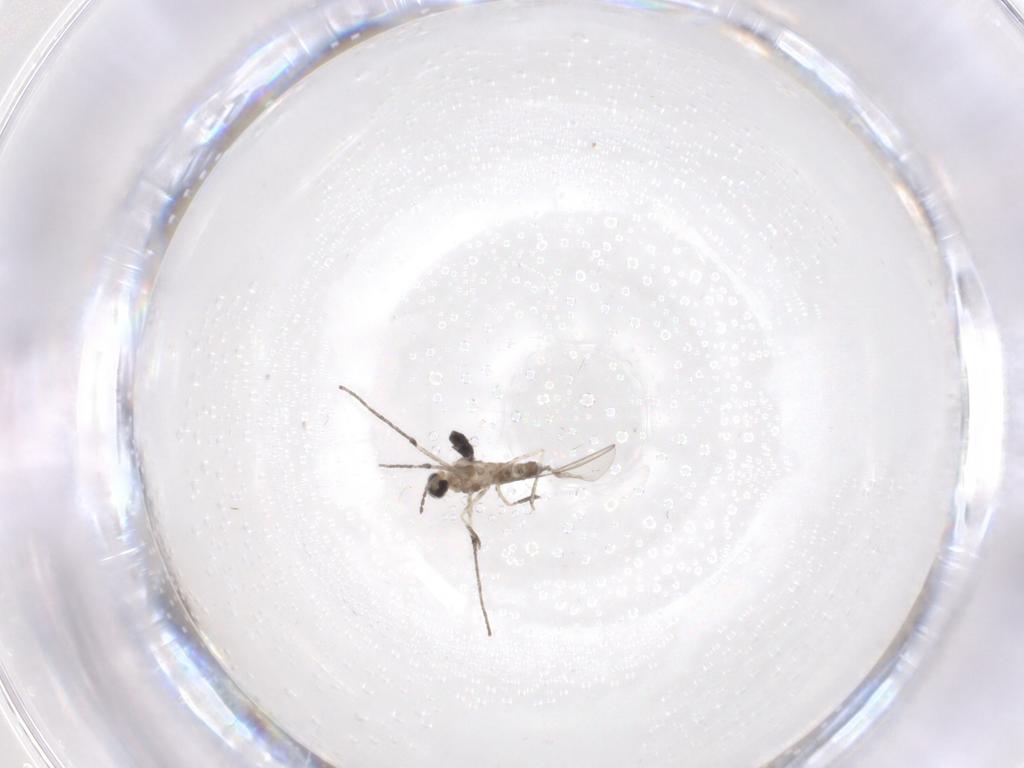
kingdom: Animalia
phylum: Arthropoda
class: Insecta
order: Diptera
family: Cecidomyiidae
